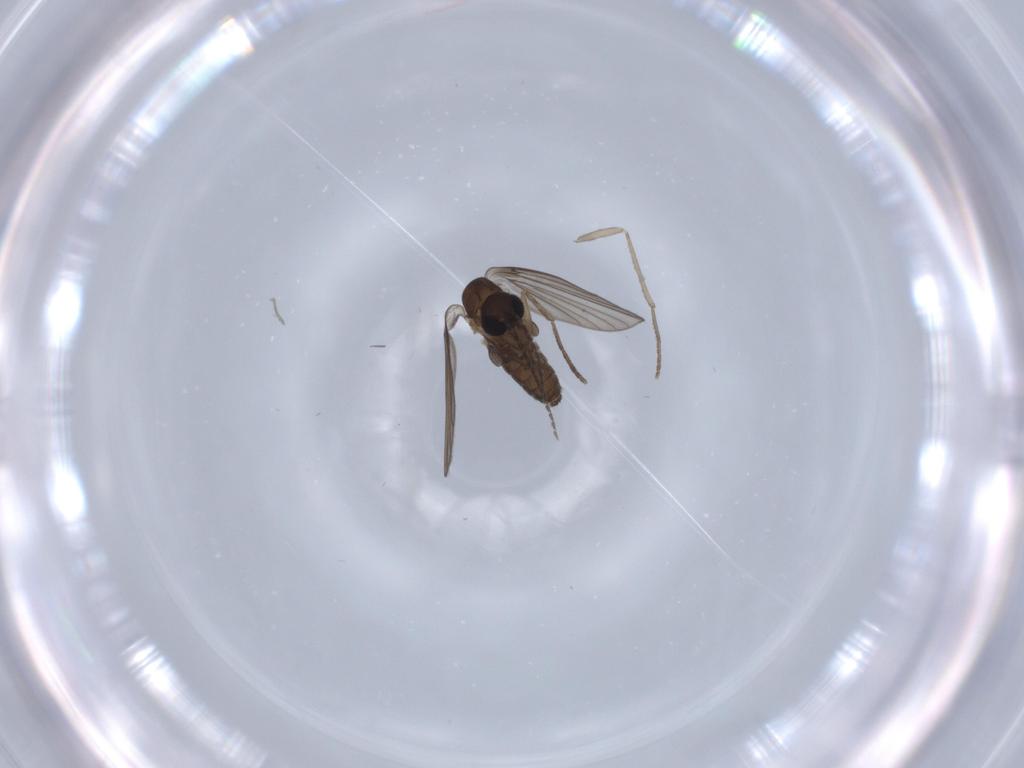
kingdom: Animalia
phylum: Arthropoda
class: Insecta
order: Diptera
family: Psychodidae
